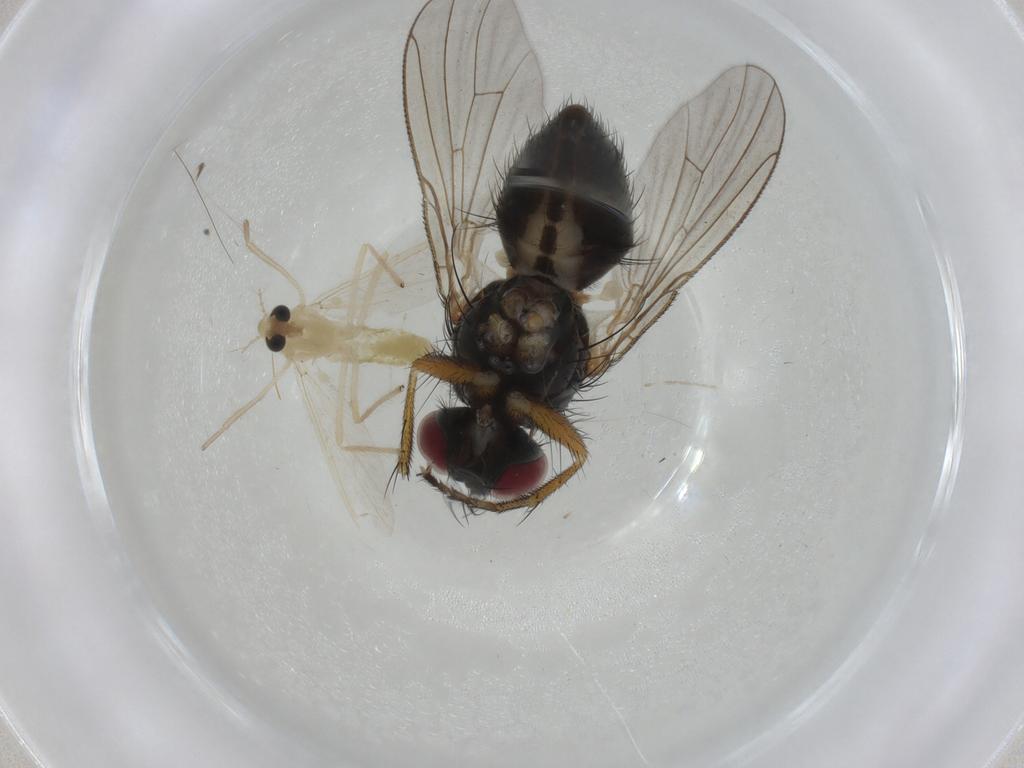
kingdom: Animalia
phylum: Arthropoda
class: Insecta
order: Diptera
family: Muscidae
